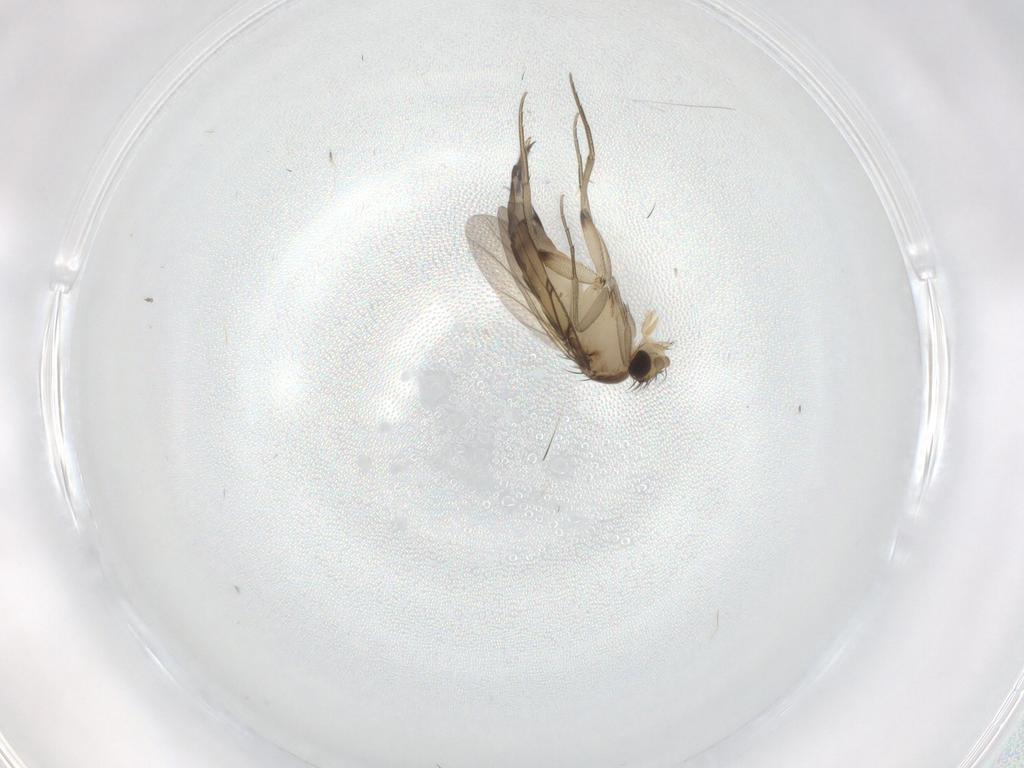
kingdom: Animalia
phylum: Arthropoda
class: Insecta
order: Diptera
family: Phoridae
